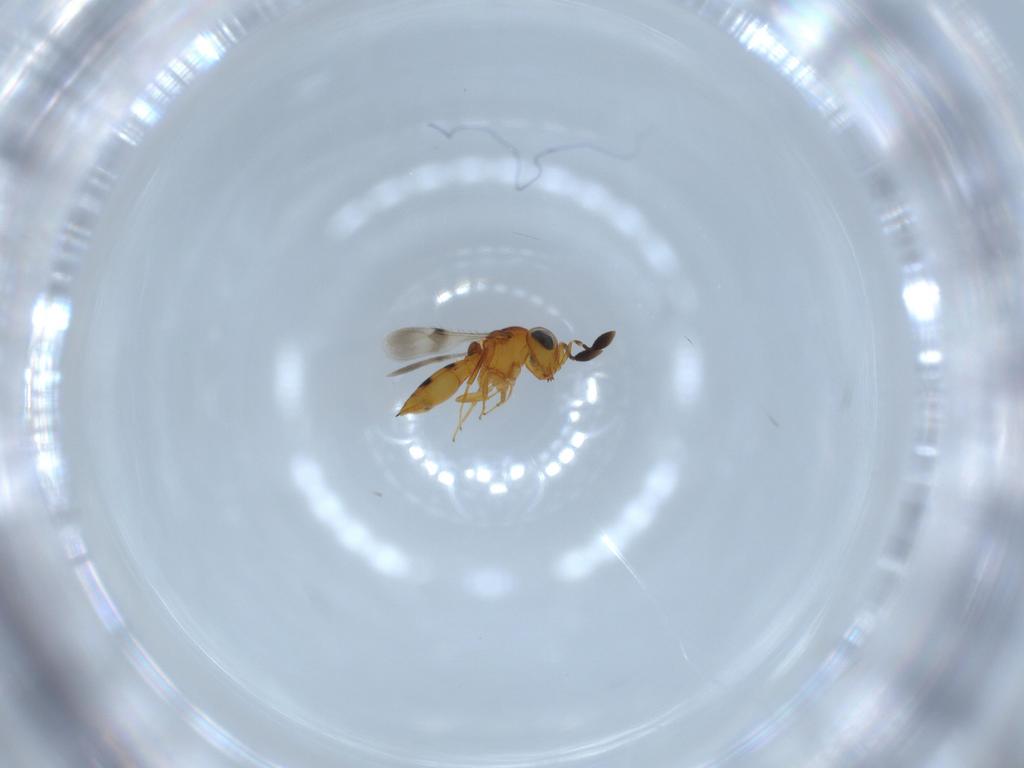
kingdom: Animalia
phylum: Arthropoda
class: Insecta
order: Hymenoptera
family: Scelionidae
